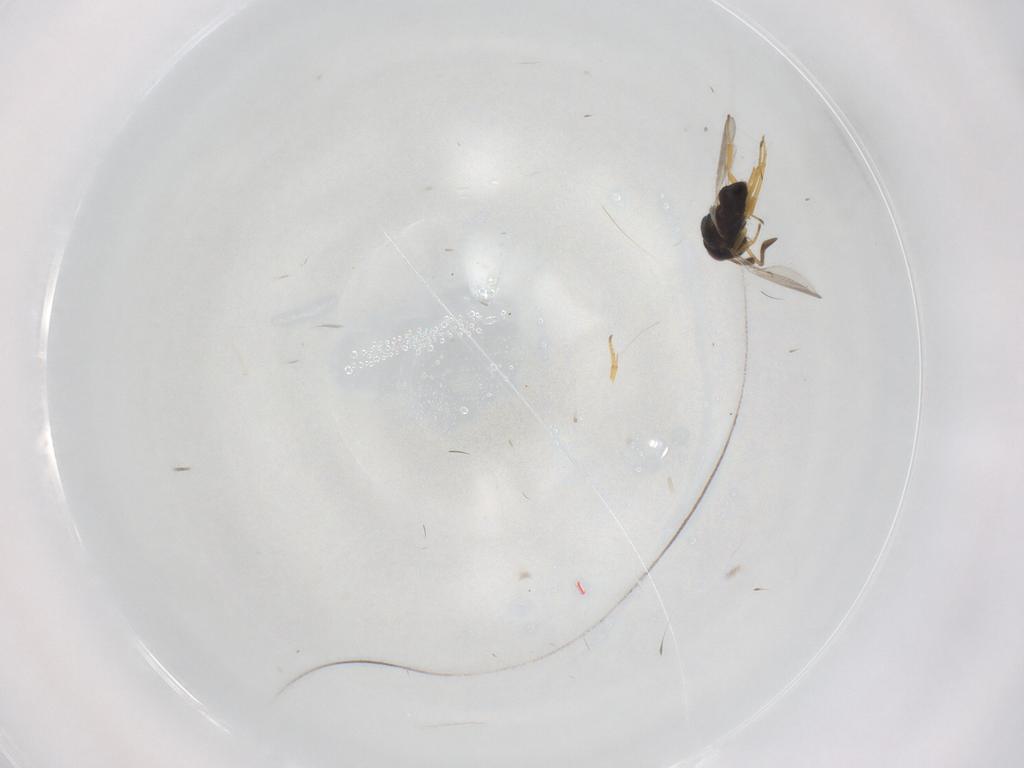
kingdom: Animalia
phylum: Arthropoda
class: Insecta
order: Hymenoptera
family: Encyrtidae
